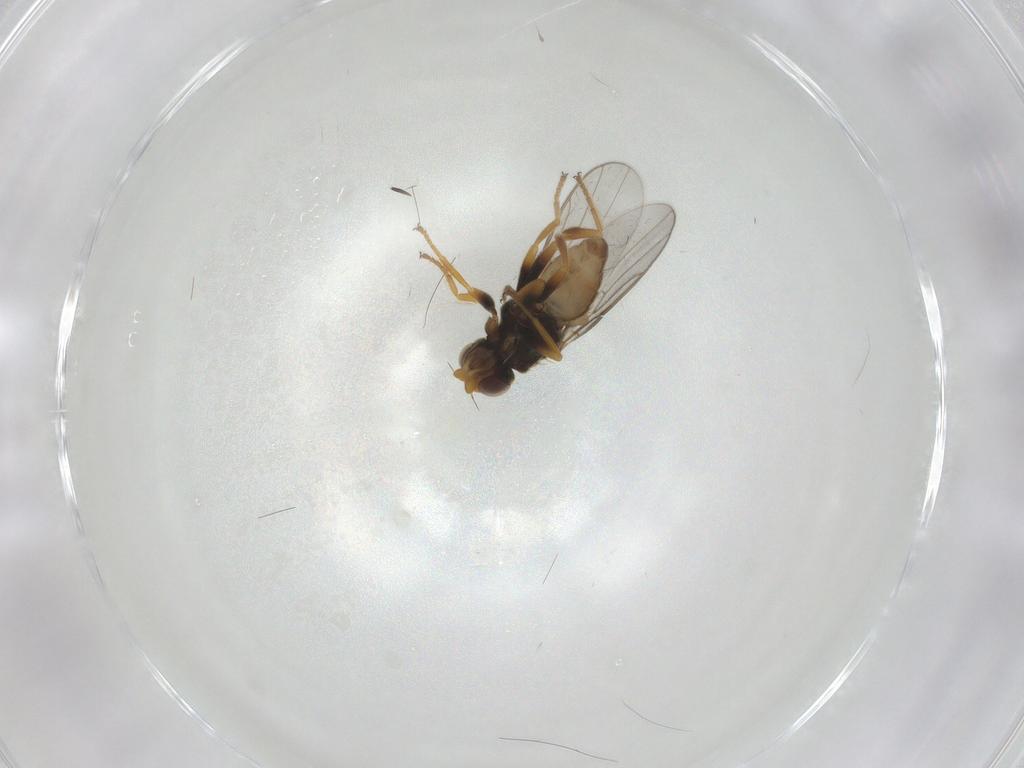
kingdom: Animalia
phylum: Arthropoda
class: Insecta
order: Diptera
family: Chloropidae
